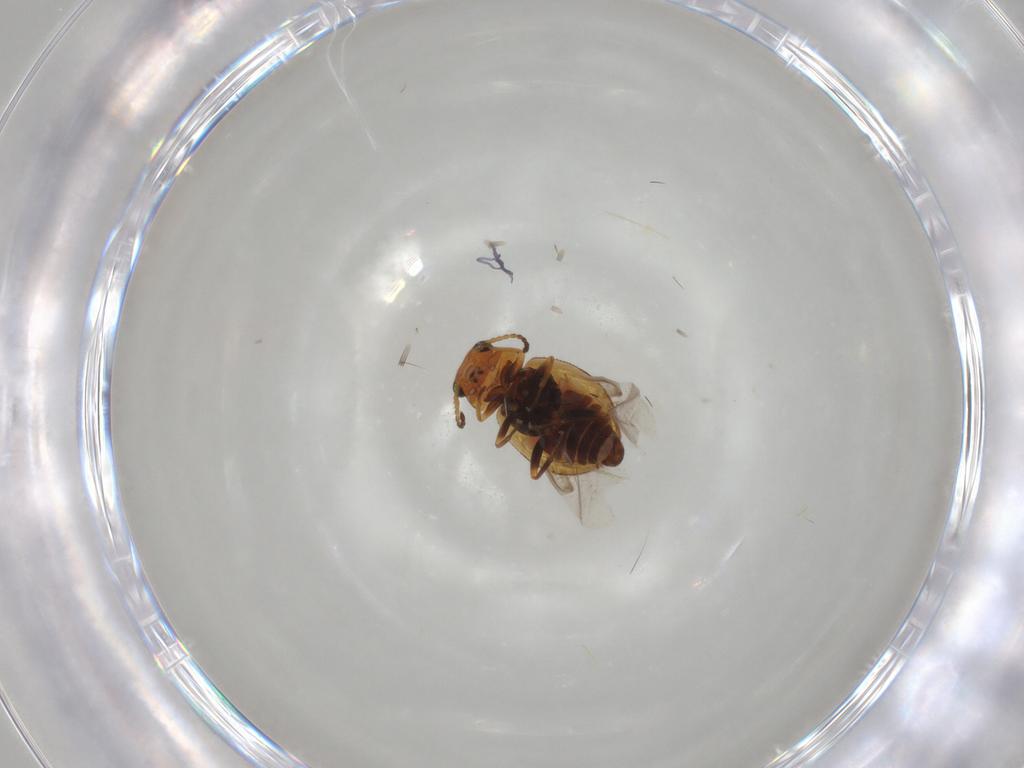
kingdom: Animalia
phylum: Arthropoda
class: Insecta
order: Coleoptera
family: Melyridae
